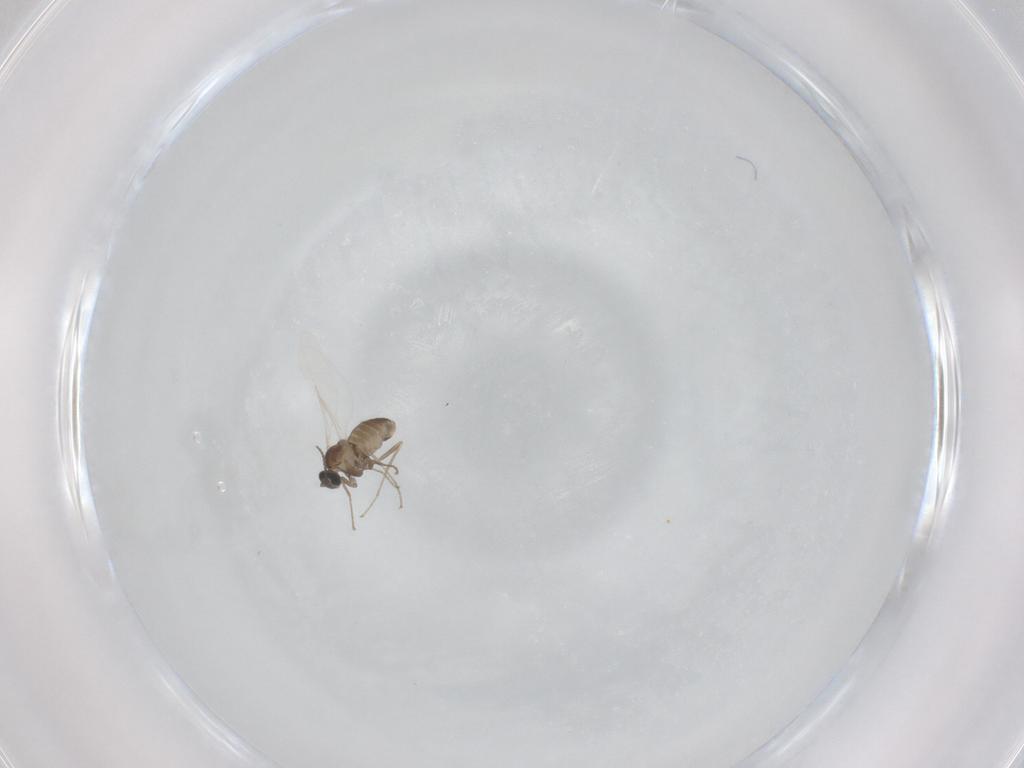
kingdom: Animalia
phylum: Arthropoda
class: Insecta
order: Diptera
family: Cecidomyiidae
